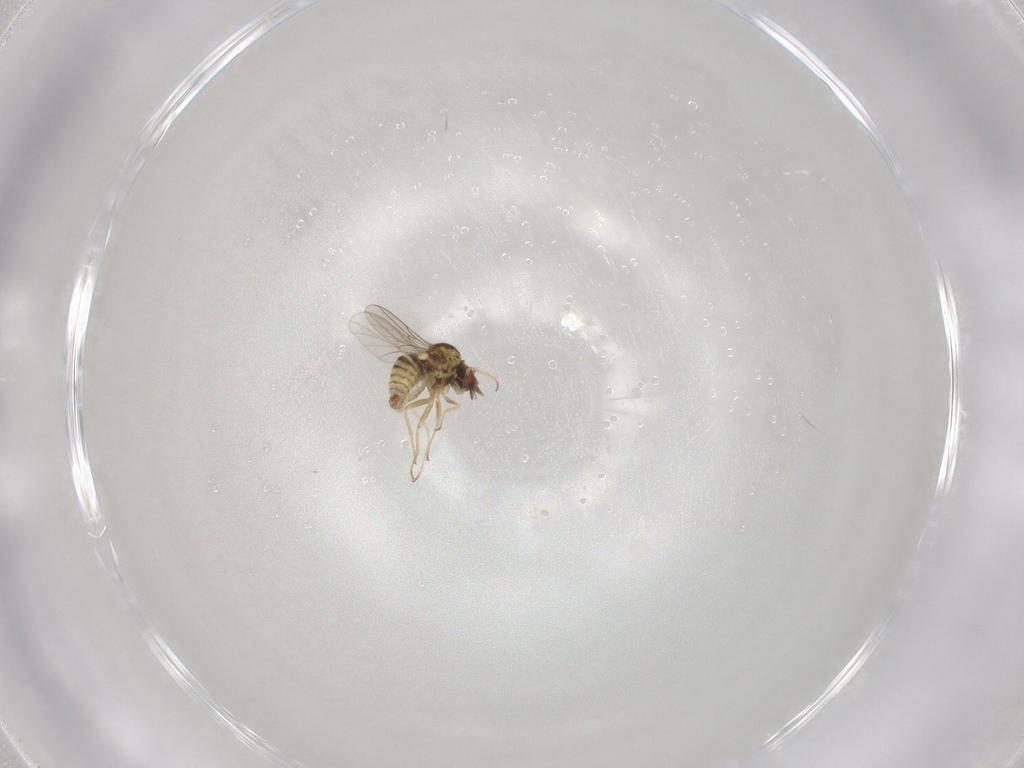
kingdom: Animalia
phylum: Arthropoda
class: Insecta
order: Diptera
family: Mythicomyiidae
